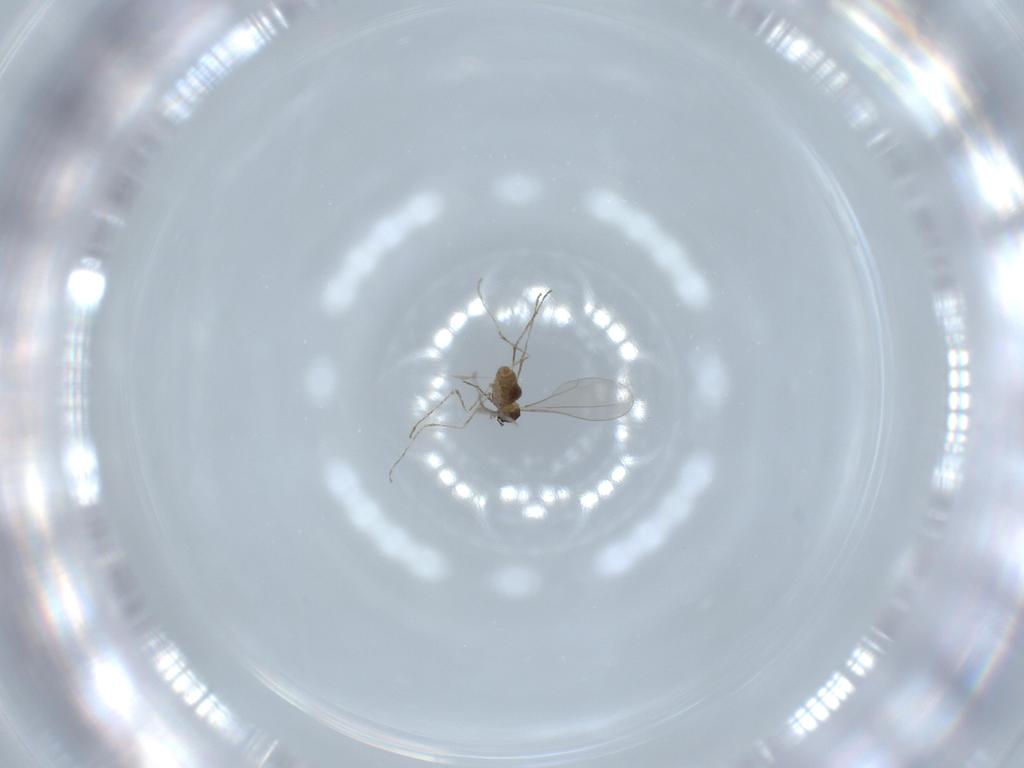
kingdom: Animalia
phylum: Arthropoda
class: Insecta
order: Diptera
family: Cecidomyiidae
